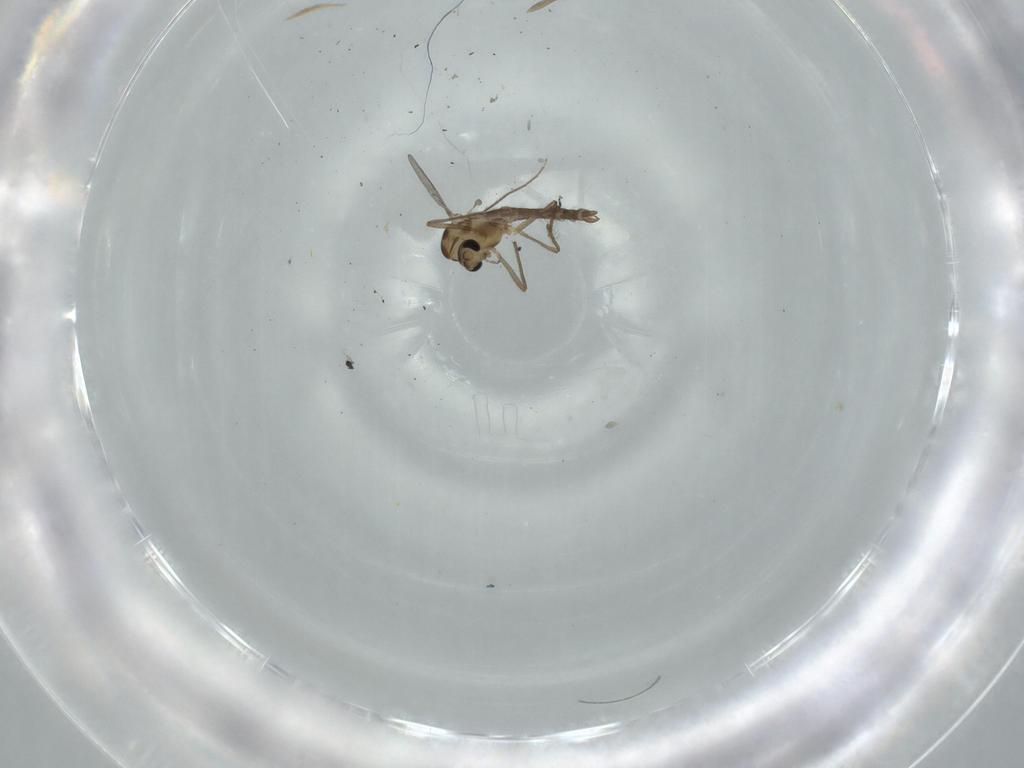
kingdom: Animalia
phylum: Arthropoda
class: Insecta
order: Diptera
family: Chironomidae
